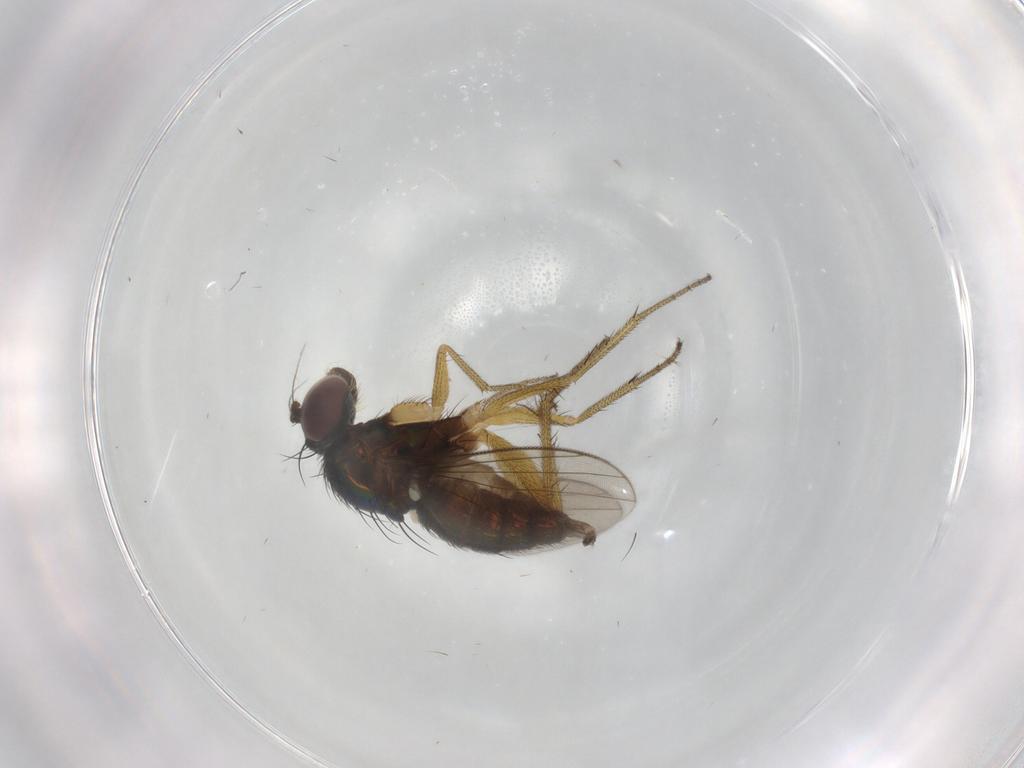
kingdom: Animalia
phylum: Arthropoda
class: Insecta
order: Diptera
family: Dolichopodidae
